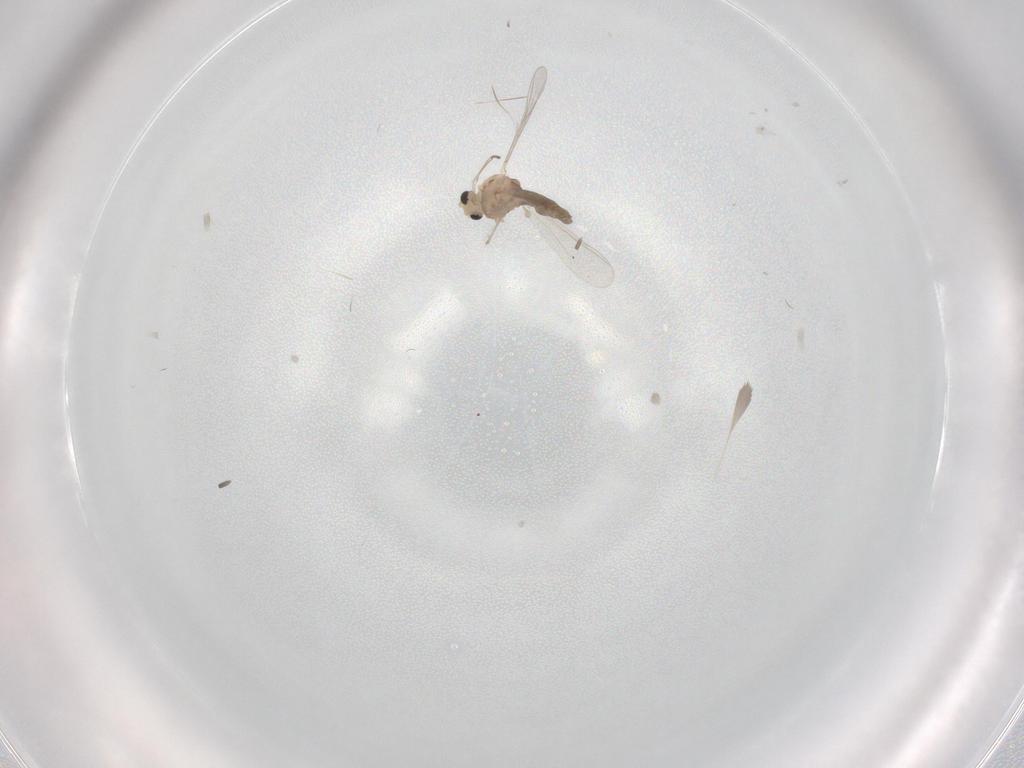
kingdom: Animalia
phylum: Arthropoda
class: Insecta
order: Diptera
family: Chironomidae
